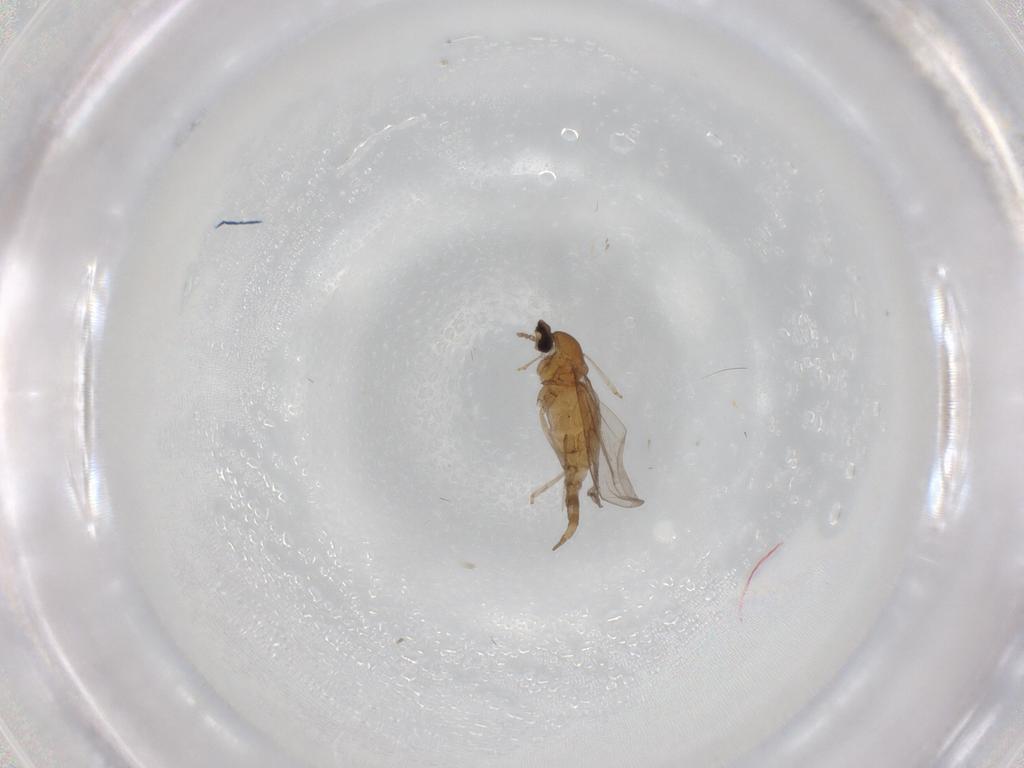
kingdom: Animalia
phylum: Arthropoda
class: Insecta
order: Diptera
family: Cecidomyiidae
